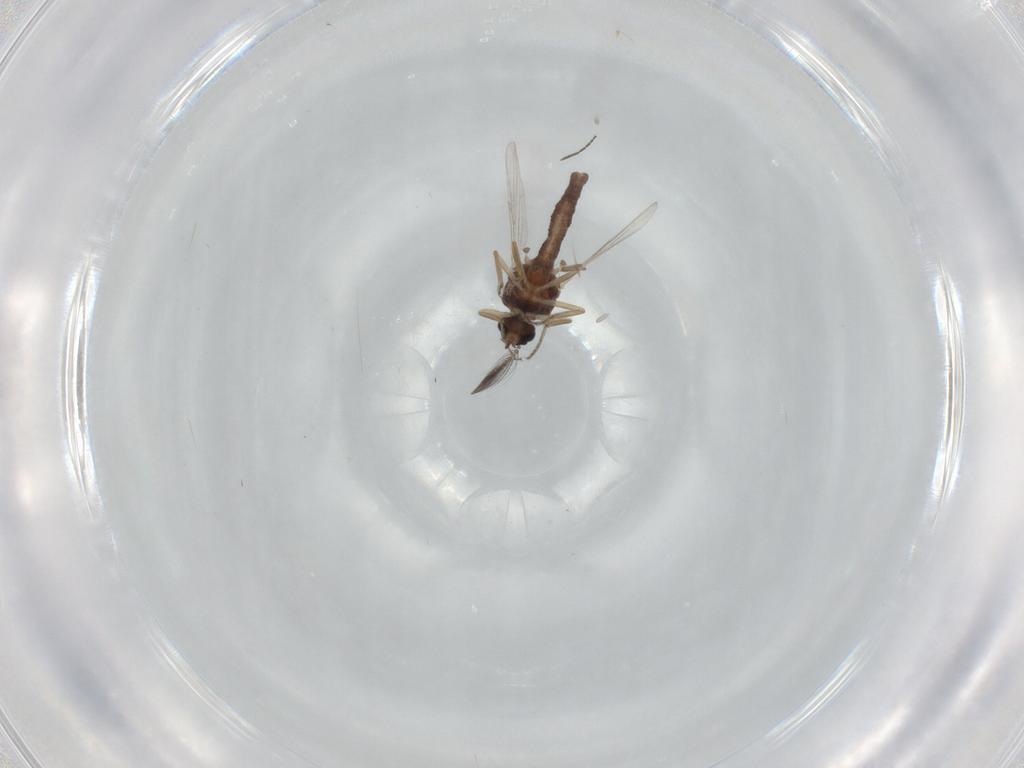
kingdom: Animalia
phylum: Arthropoda
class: Insecta
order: Diptera
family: Ceratopogonidae
